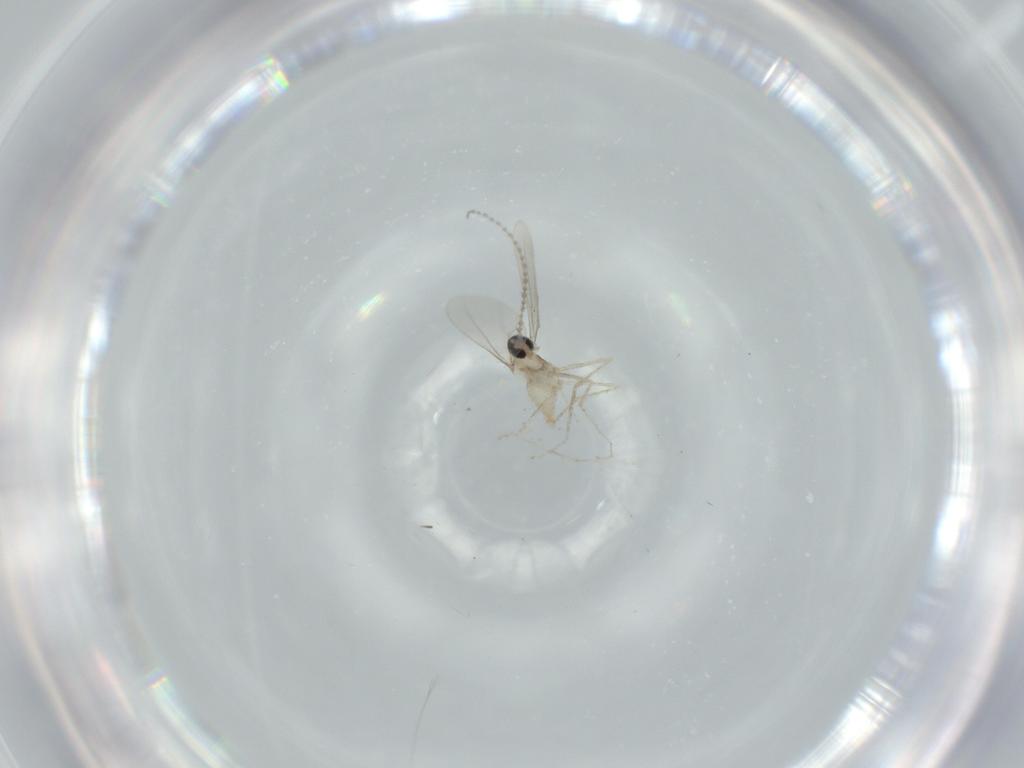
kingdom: Animalia
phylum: Arthropoda
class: Insecta
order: Diptera
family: Cecidomyiidae
